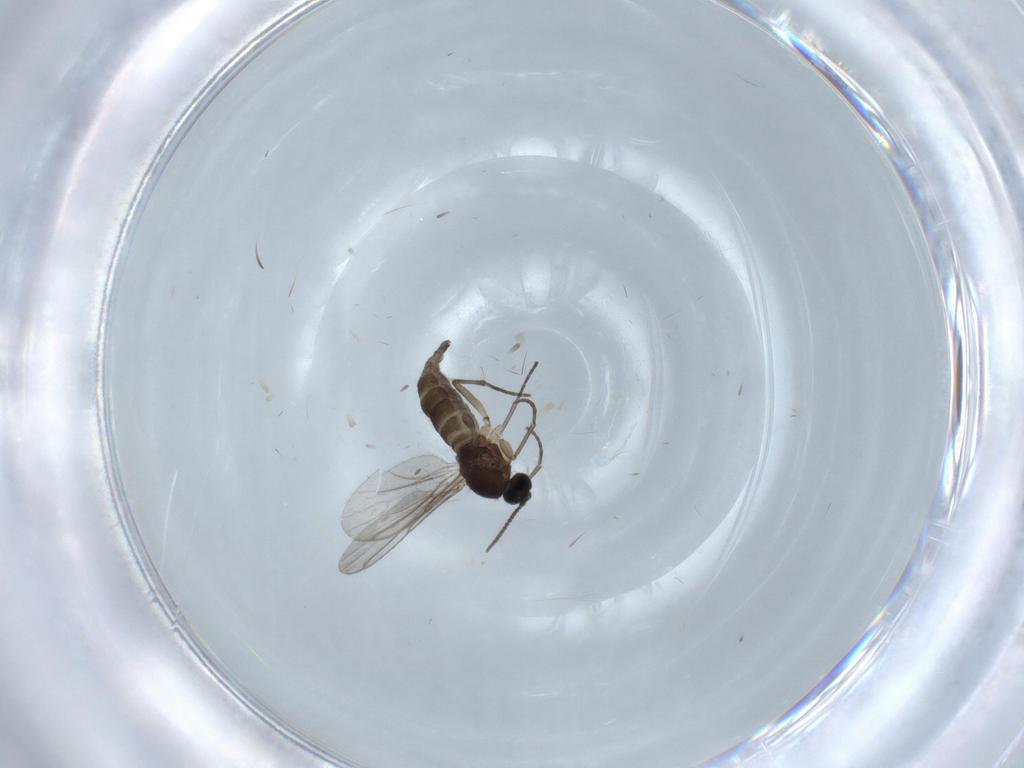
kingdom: Animalia
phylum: Arthropoda
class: Insecta
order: Diptera
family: Sciaridae
